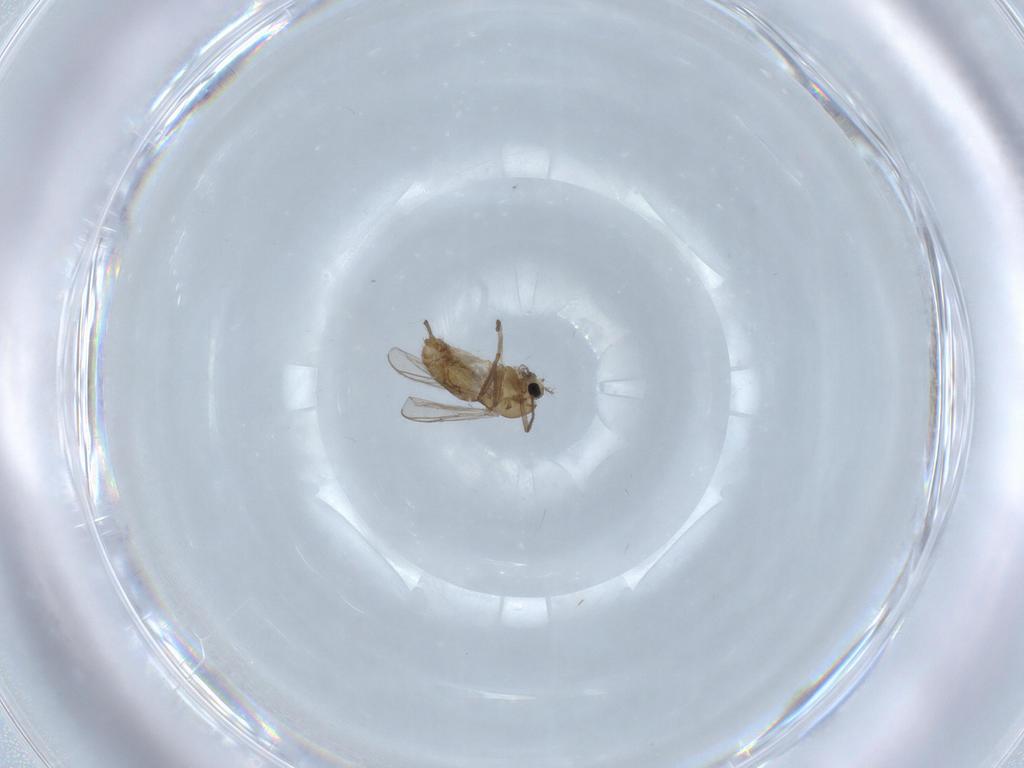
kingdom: Animalia
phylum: Arthropoda
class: Insecta
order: Diptera
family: Chironomidae
